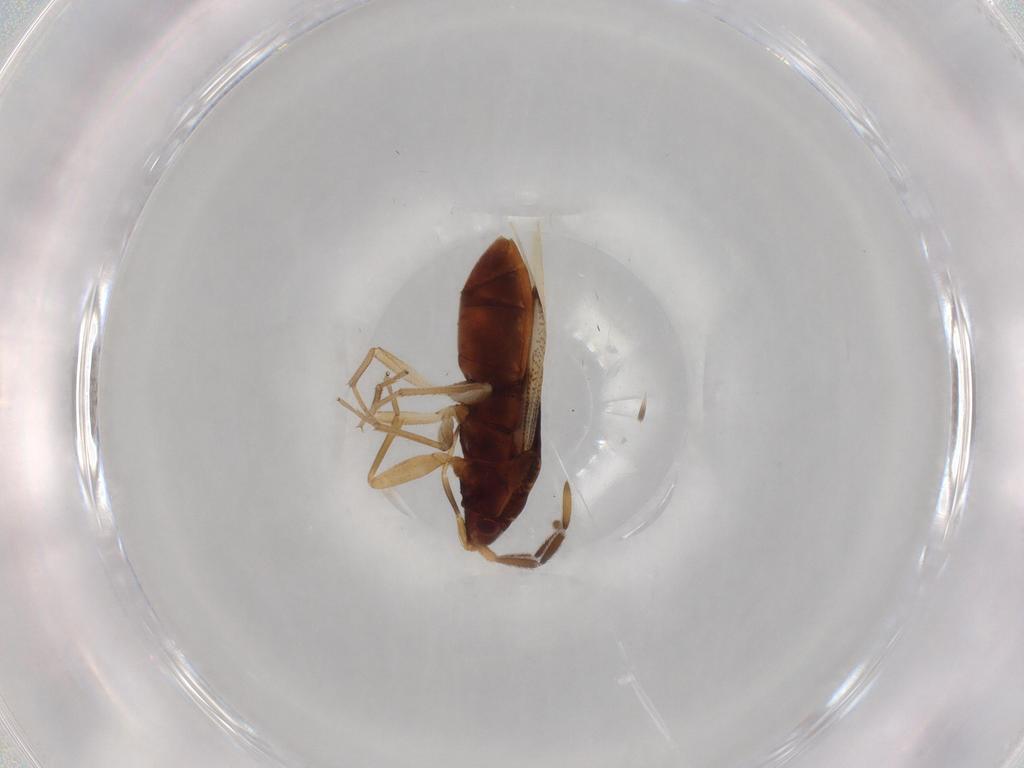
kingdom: Animalia
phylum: Arthropoda
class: Insecta
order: Hemiptera
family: Rhyparochromidae
